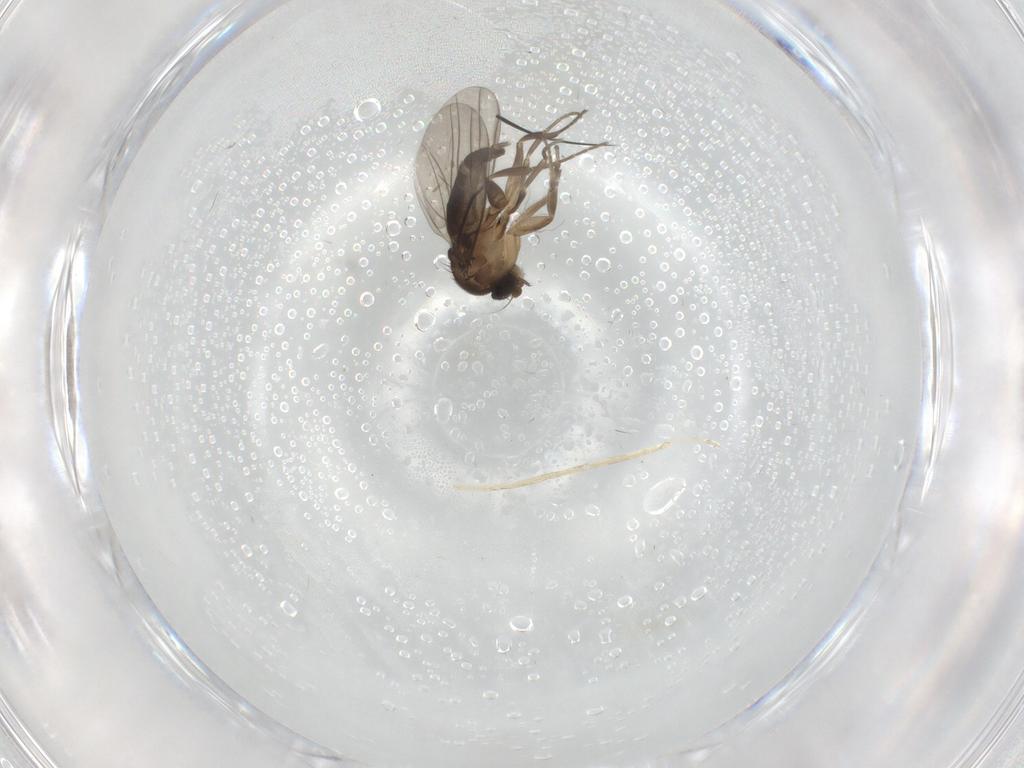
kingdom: Animalia
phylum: Arthropoda
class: Insecta
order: Diptera
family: Phoridae
